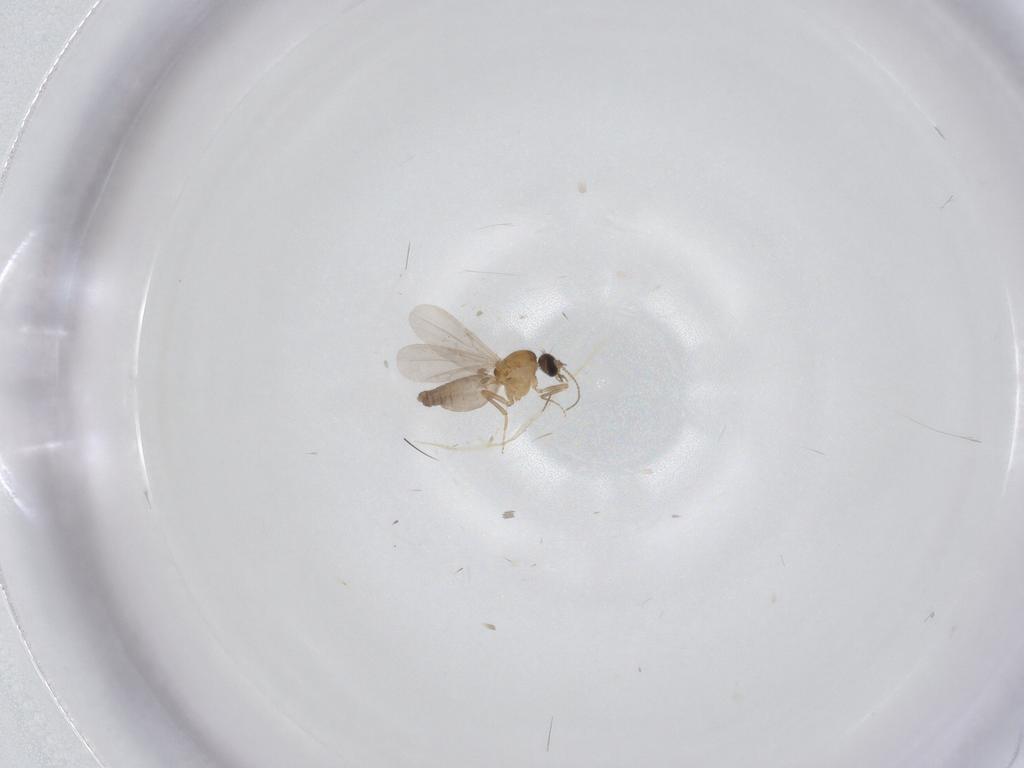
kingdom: Animalia
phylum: Arthropoda
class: Insecta
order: Diptera
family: Ceratopogonidae
